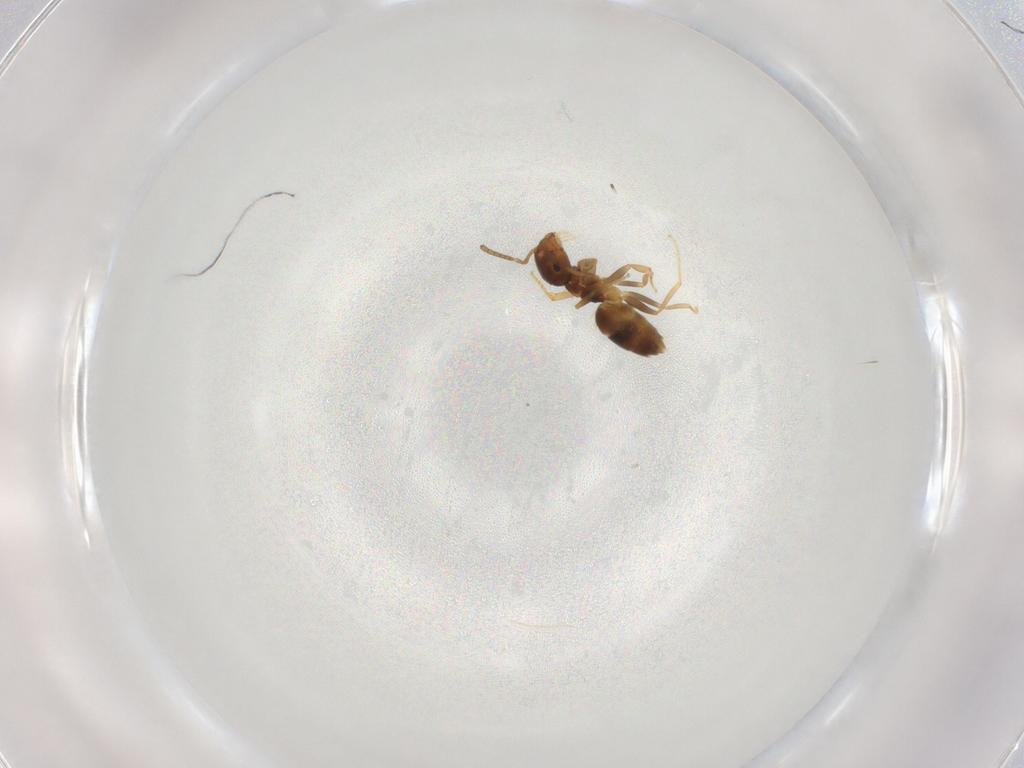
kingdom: Animalia
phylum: Arthropoda
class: Insecta
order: Hymenoptera
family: Formicidae
